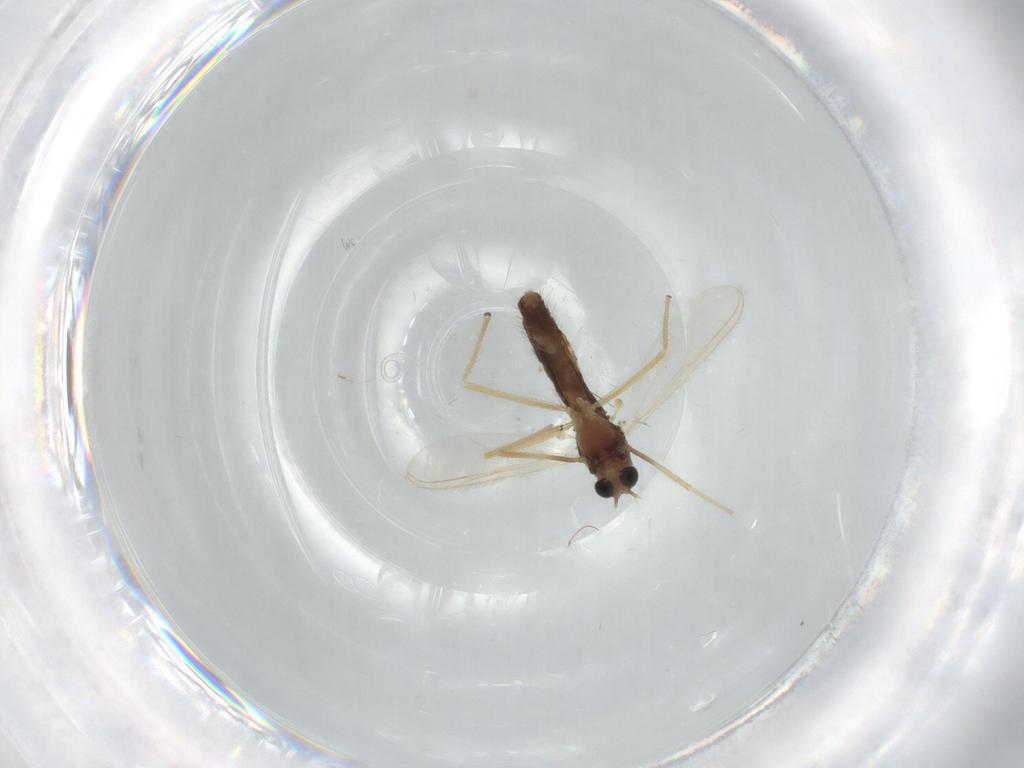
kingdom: Animalia
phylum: Arthropoda
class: Insecta
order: Diptera
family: Chironomidae
